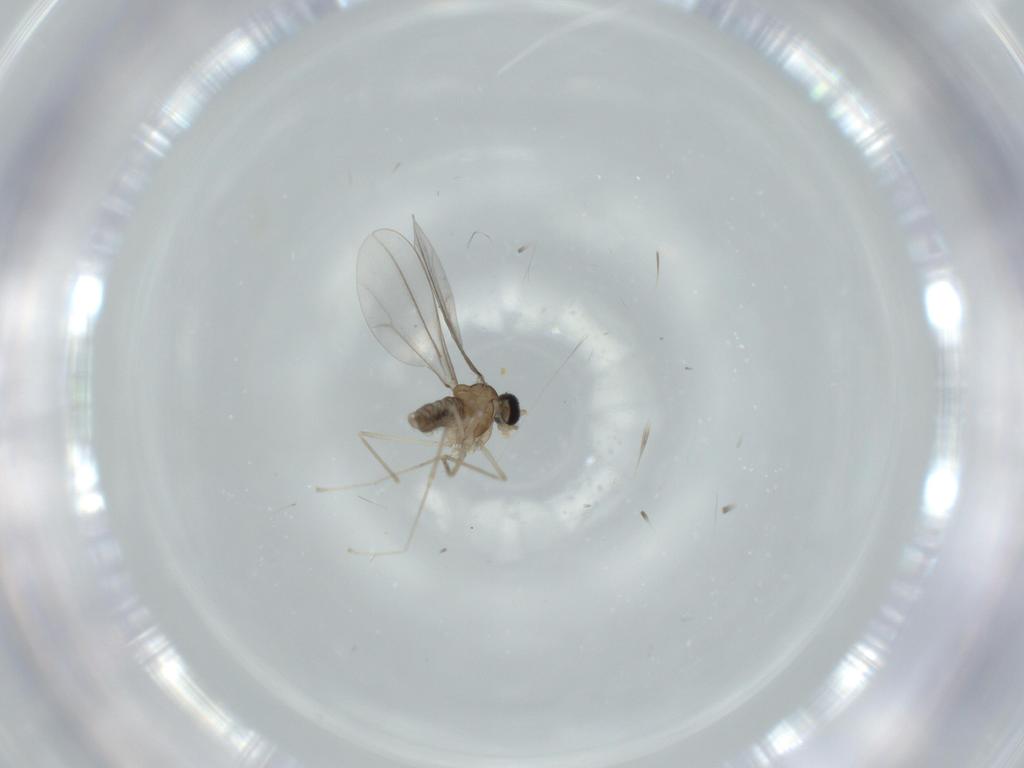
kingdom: Animalia
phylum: Arthropoda
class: Insecta
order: Diptera
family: Cecidomyiidae
